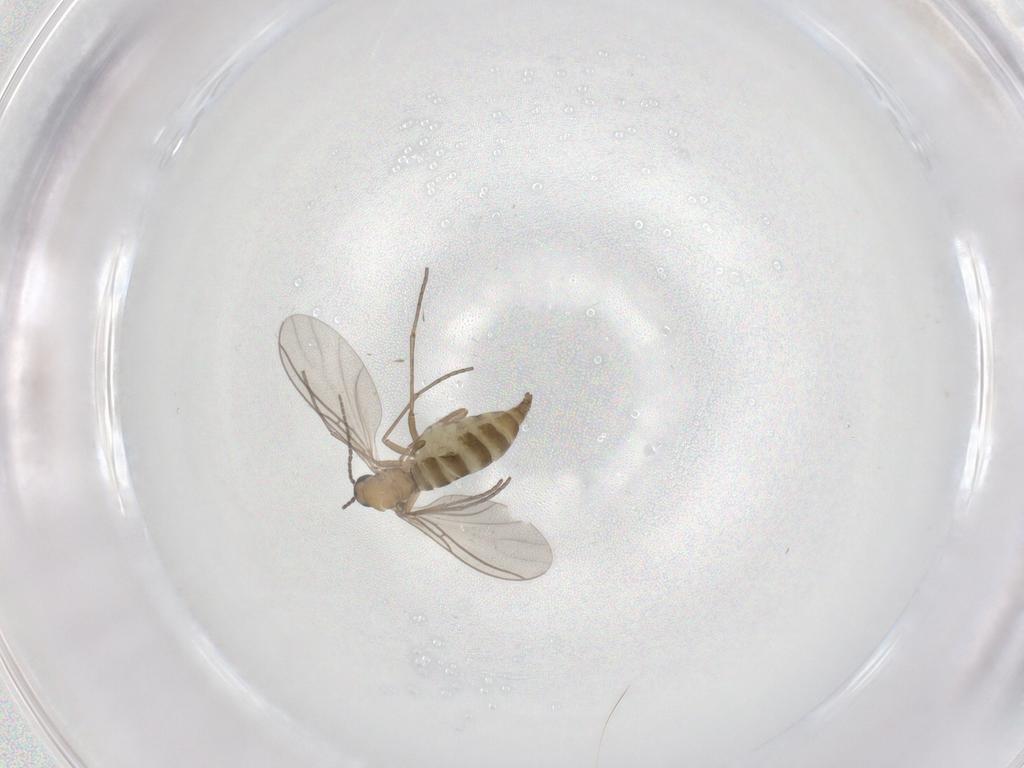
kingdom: Animalia
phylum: Arthropoda
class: Insecta
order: Diptera
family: Sciaridae
